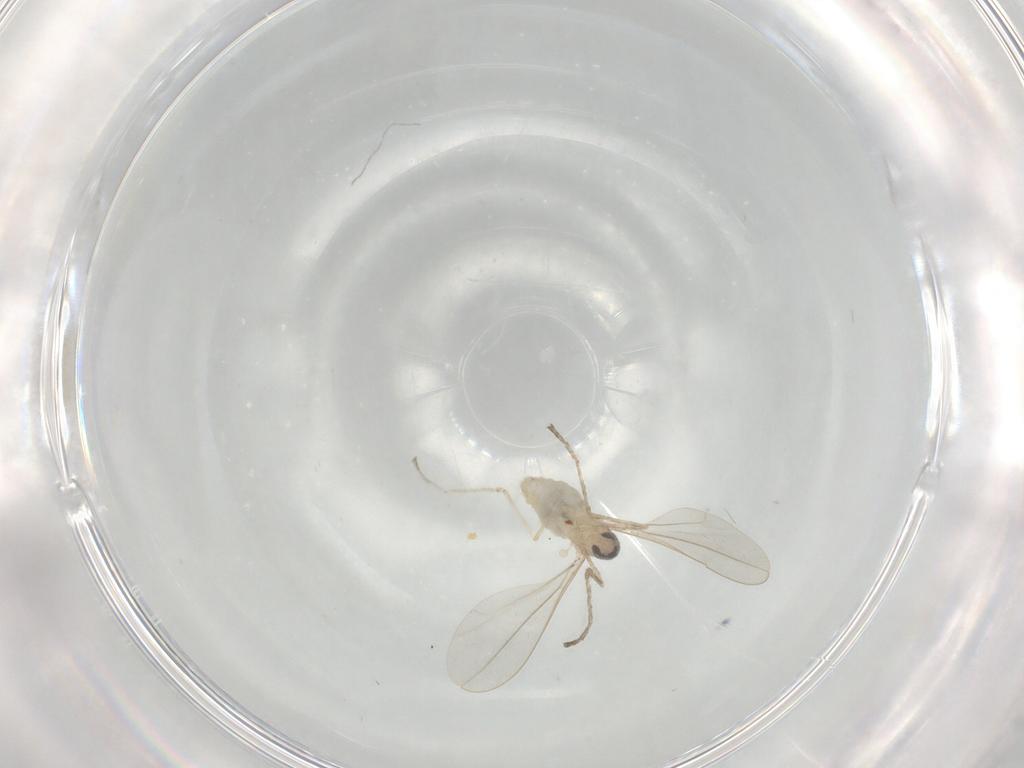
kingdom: Animalia
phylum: Arthropoda
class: Insecta
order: Diptera
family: Cecidomyiidae
